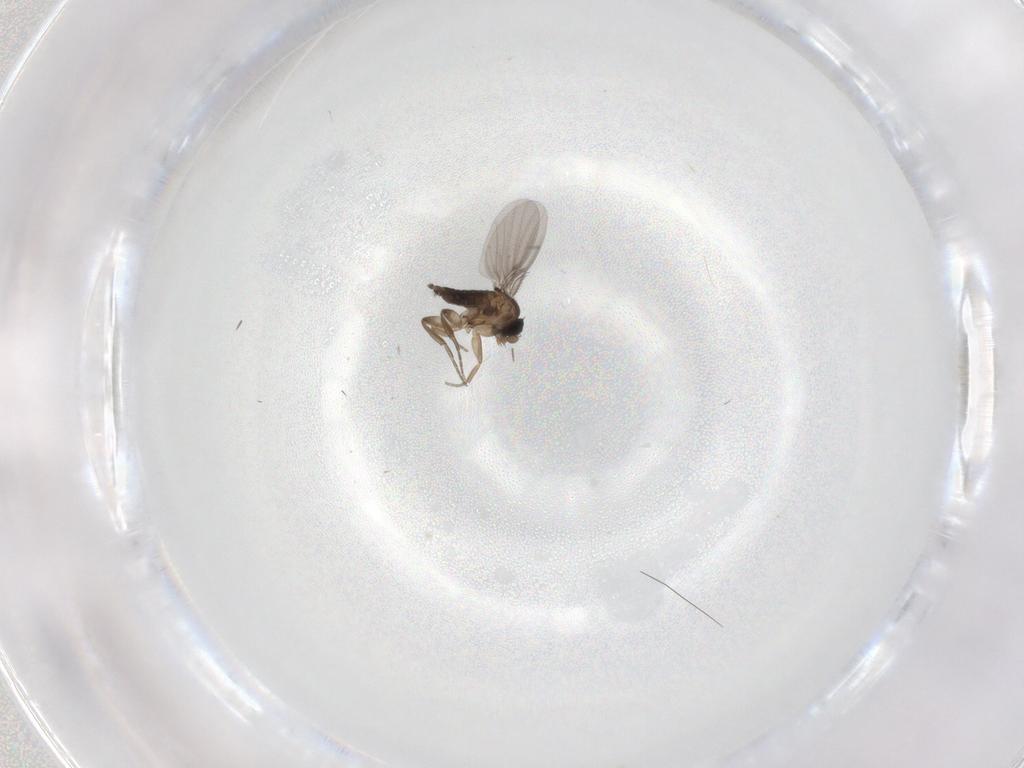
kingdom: Animalia
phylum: Arthropoda
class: Insecta
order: Diptera
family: Phoridae
